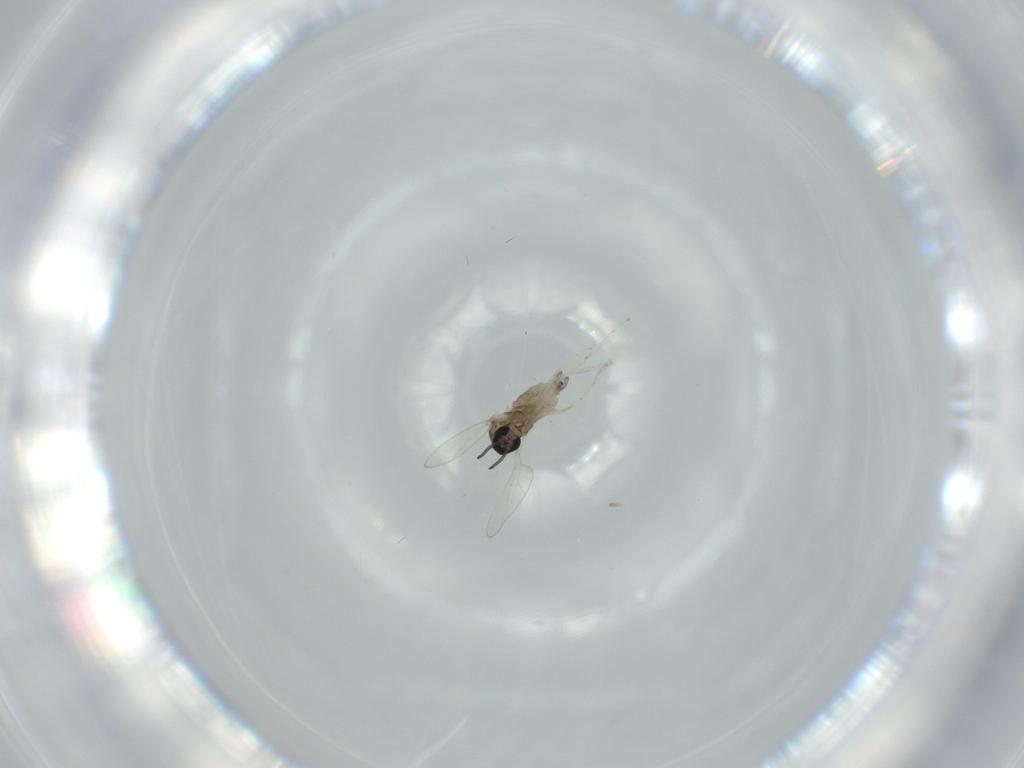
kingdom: Animalia
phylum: Arthropoda
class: Insecta
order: Diptera
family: Cecidomyiidae
